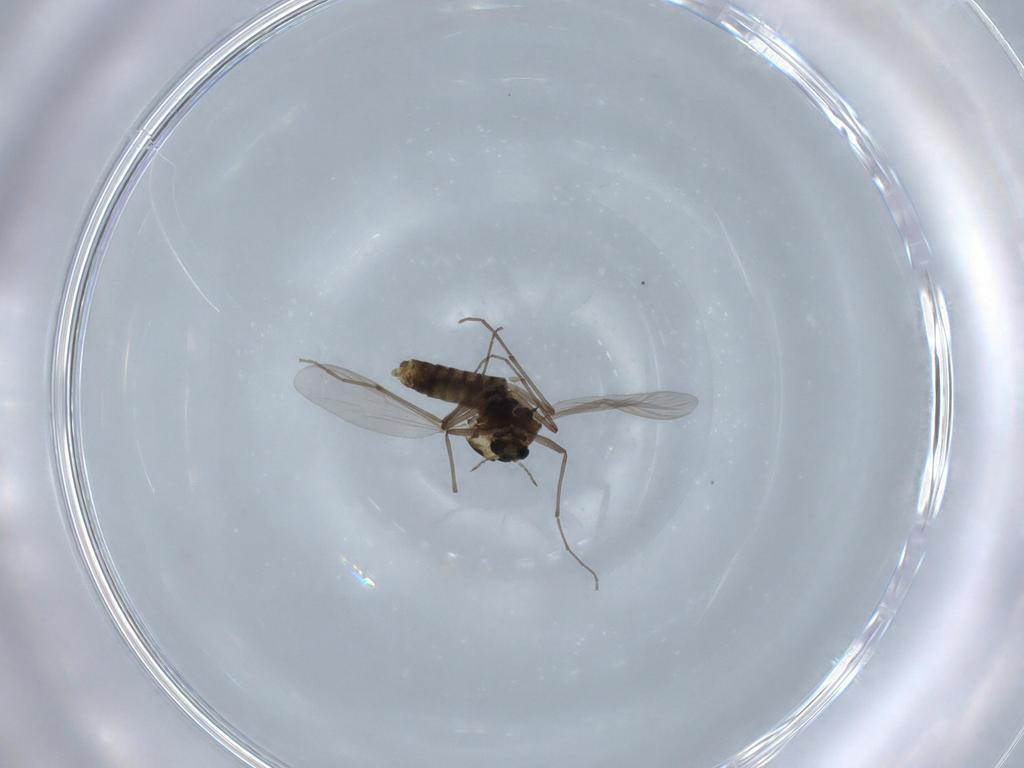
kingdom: Animalia
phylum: Arthropoda
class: Insecta
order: Diptera
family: Chironomidae
